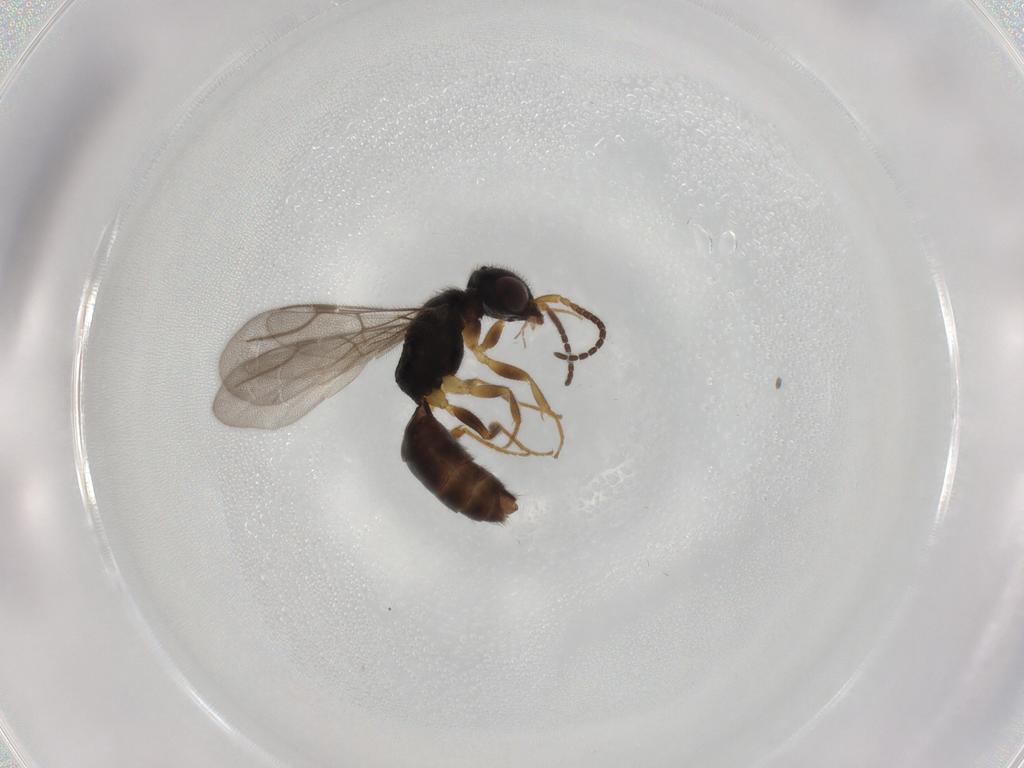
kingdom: Animalia
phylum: Arthropoda
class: Insecta
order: Hymenoptera
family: Bethylidae
